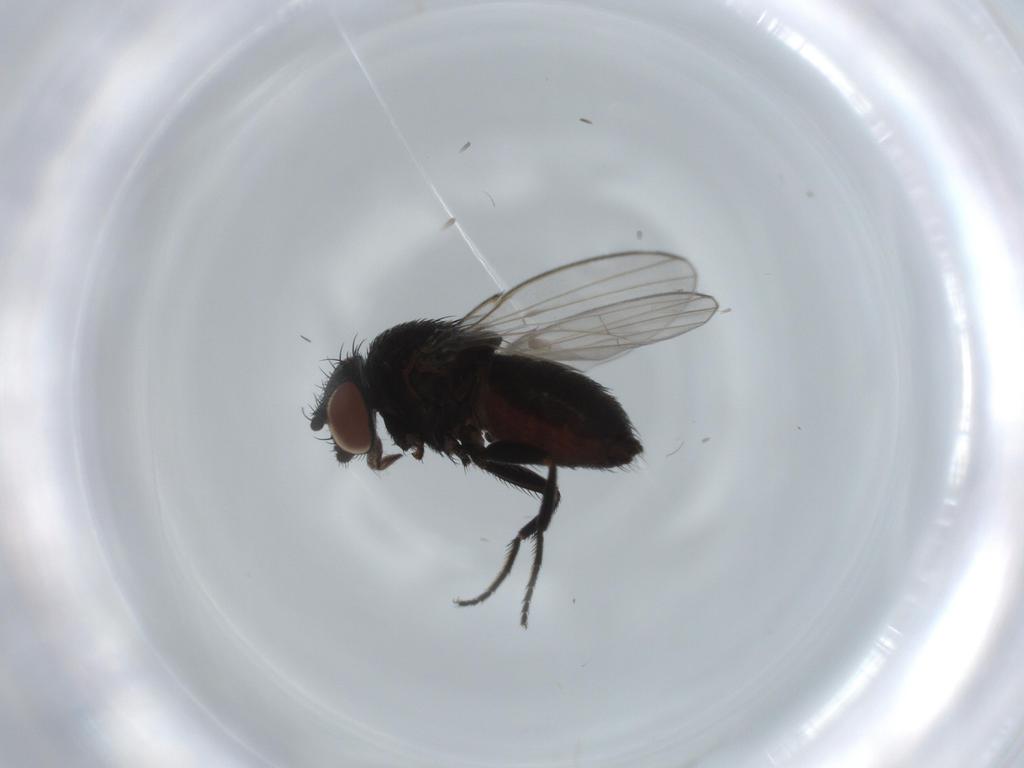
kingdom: Animalia
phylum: Arthropoda
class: Insecta
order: Diptera
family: Milichiidae
